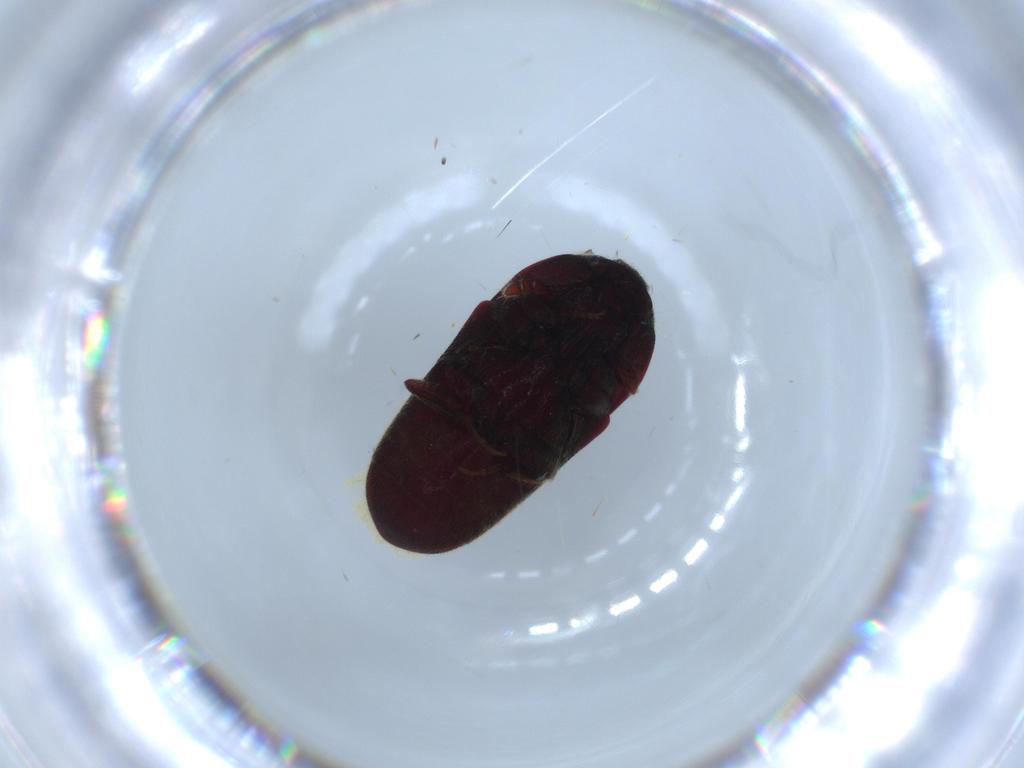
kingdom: Animalia
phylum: Arthropoda
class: Insecta
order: Coleoptera
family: Throscidae
